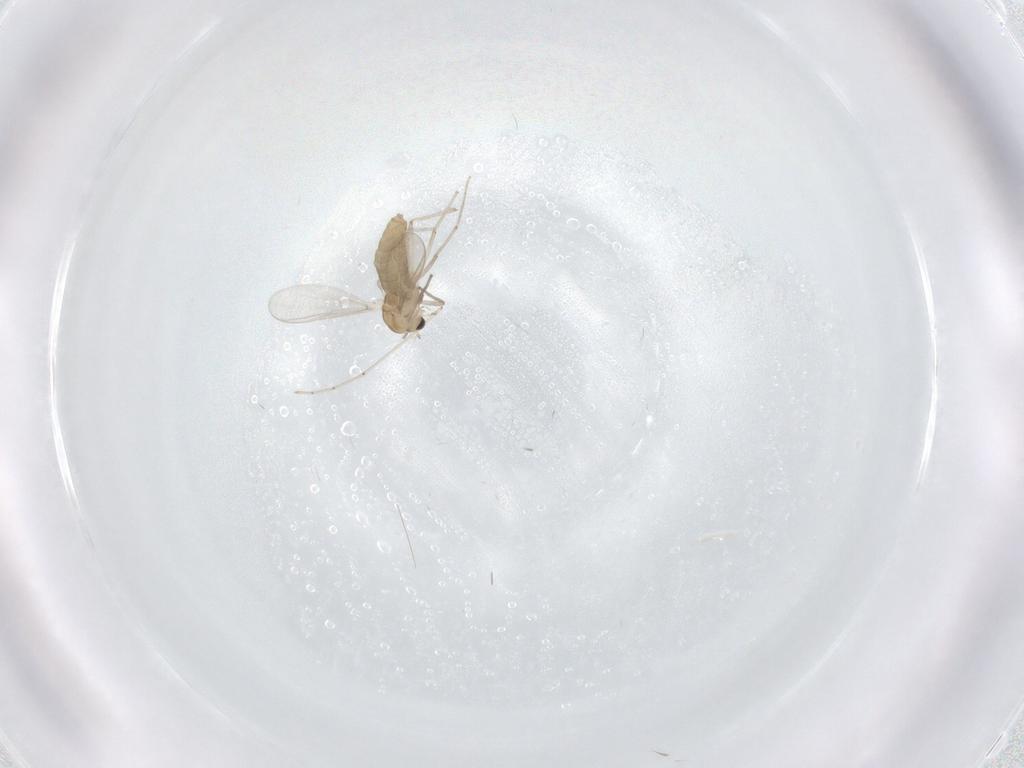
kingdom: Animalia
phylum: Arthropoda
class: Insecta
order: Diptera
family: Chironomidae
